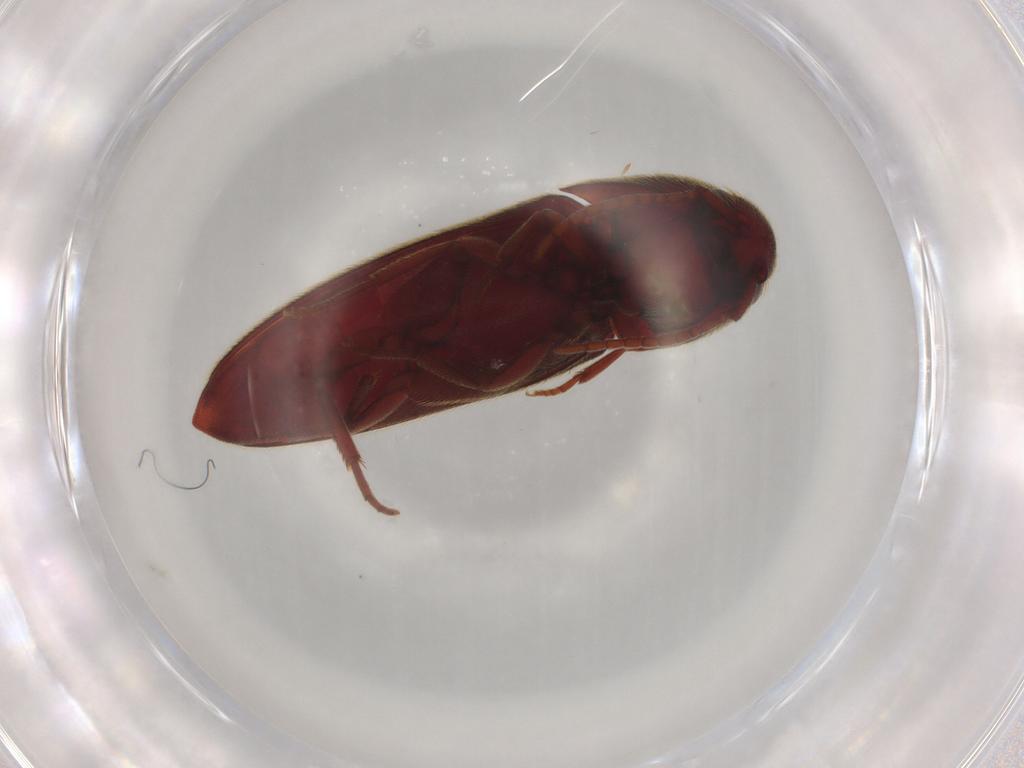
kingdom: Animalia
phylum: Arthropoda
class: Insecta
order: Coleoptera
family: Eucnemidae
